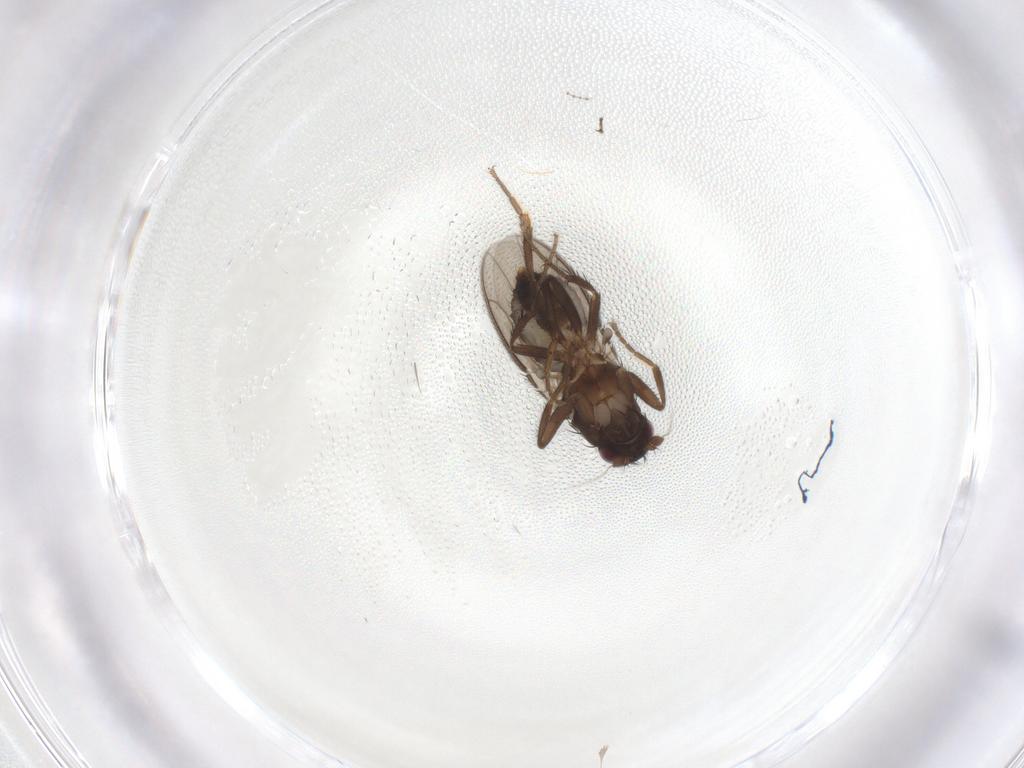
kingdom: Animalia
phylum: Arthropoda
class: Insecta
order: Diptera
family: Sphaeroceridae
